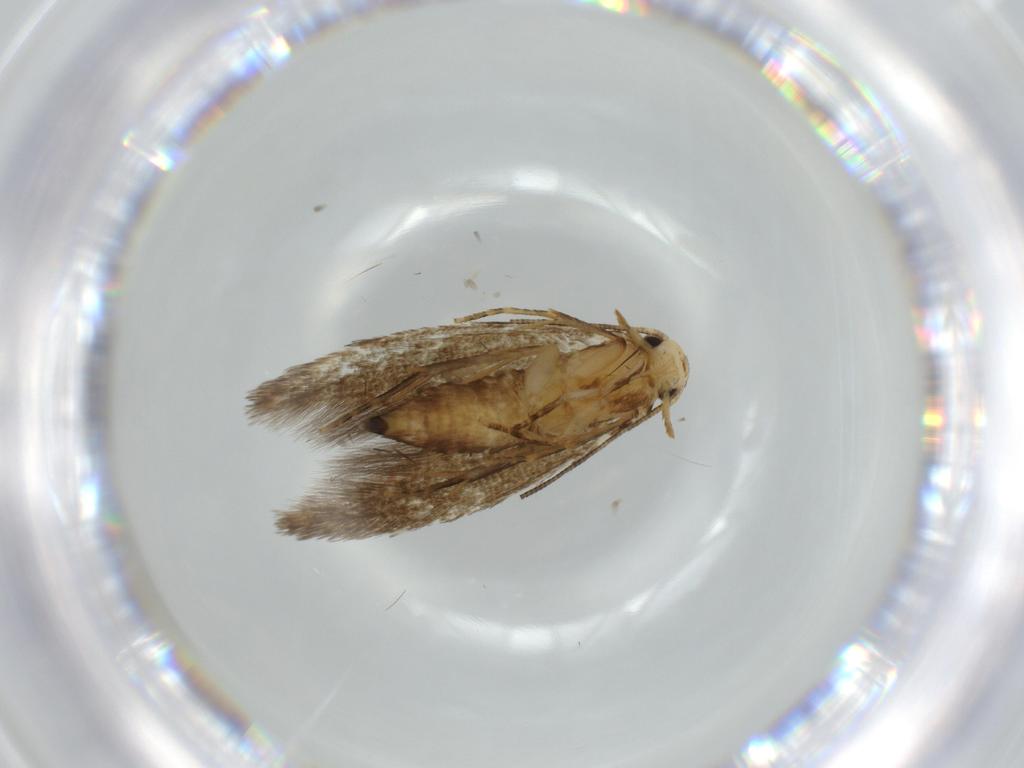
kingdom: Animalia
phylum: Arthropoda
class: Insecta
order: Lepidoptera
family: Tineidae
